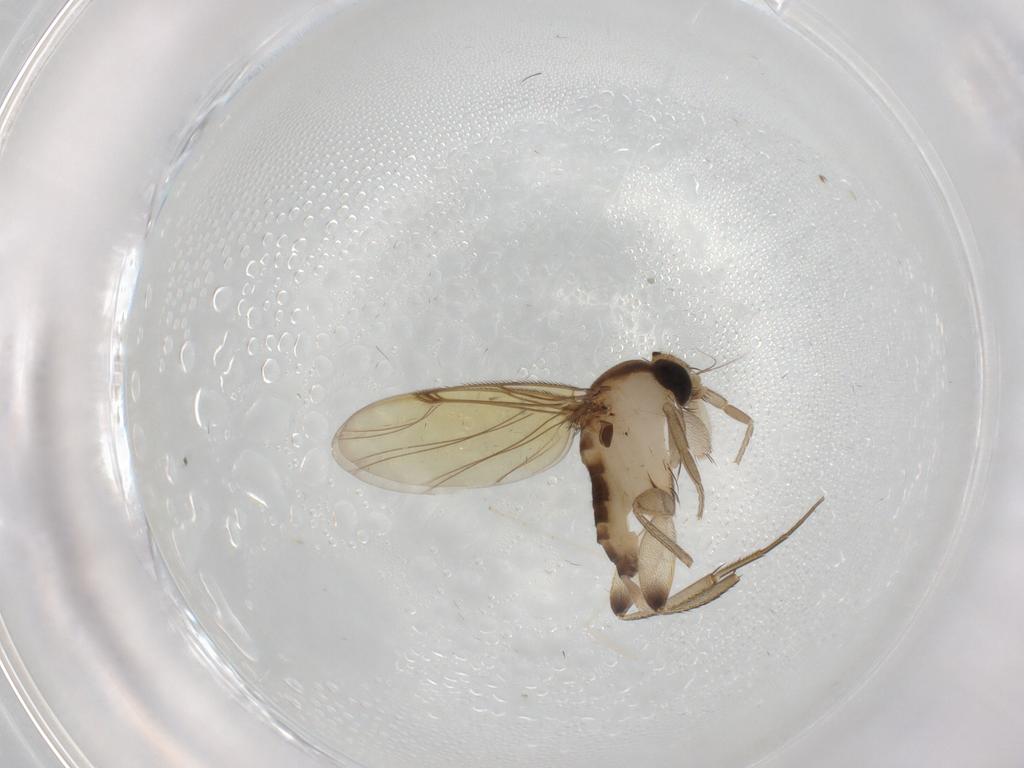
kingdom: Animalia
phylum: Arthropoda
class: Insecta
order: Diptera
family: Cecidomyiidae
